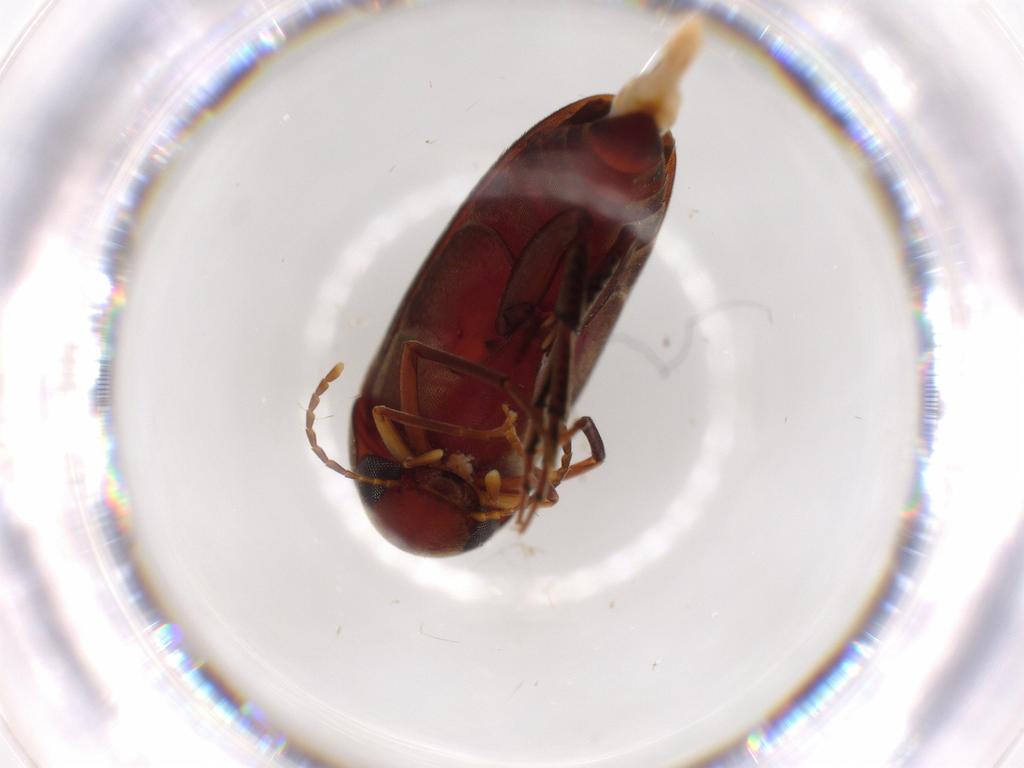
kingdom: Animalia
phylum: Arthropoda
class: Insecta
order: Coleoptera
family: Mordellidae
